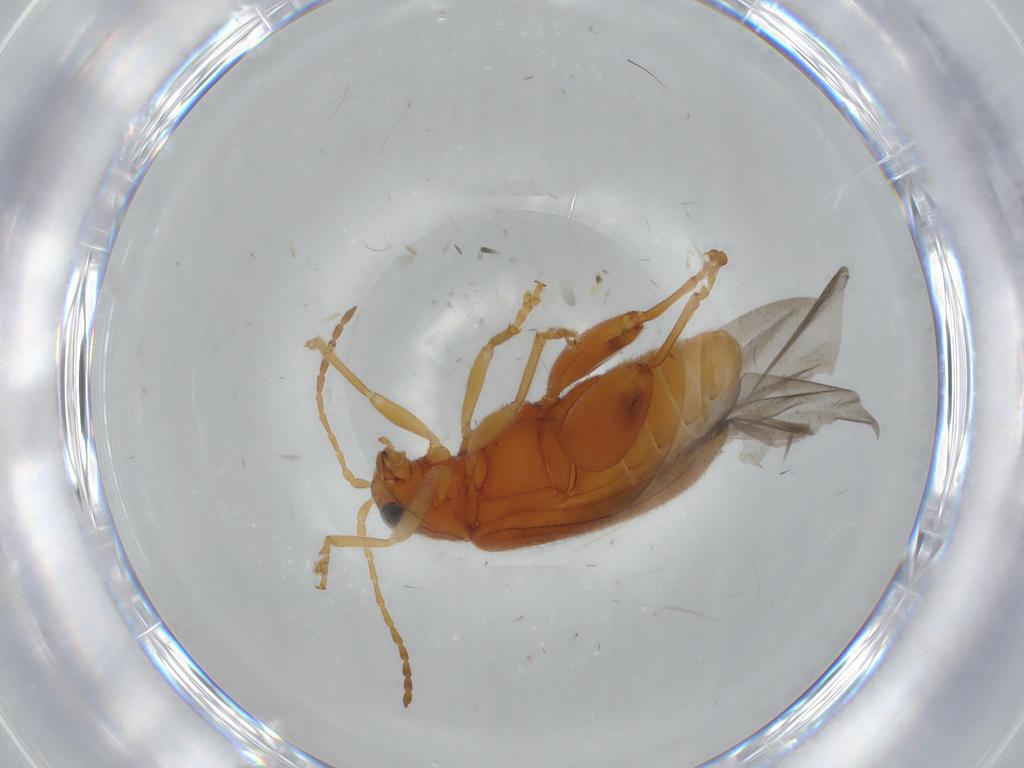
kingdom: Animalia
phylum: Arthropoda
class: Insecta
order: Coleoptera
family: Chrysomelidae
